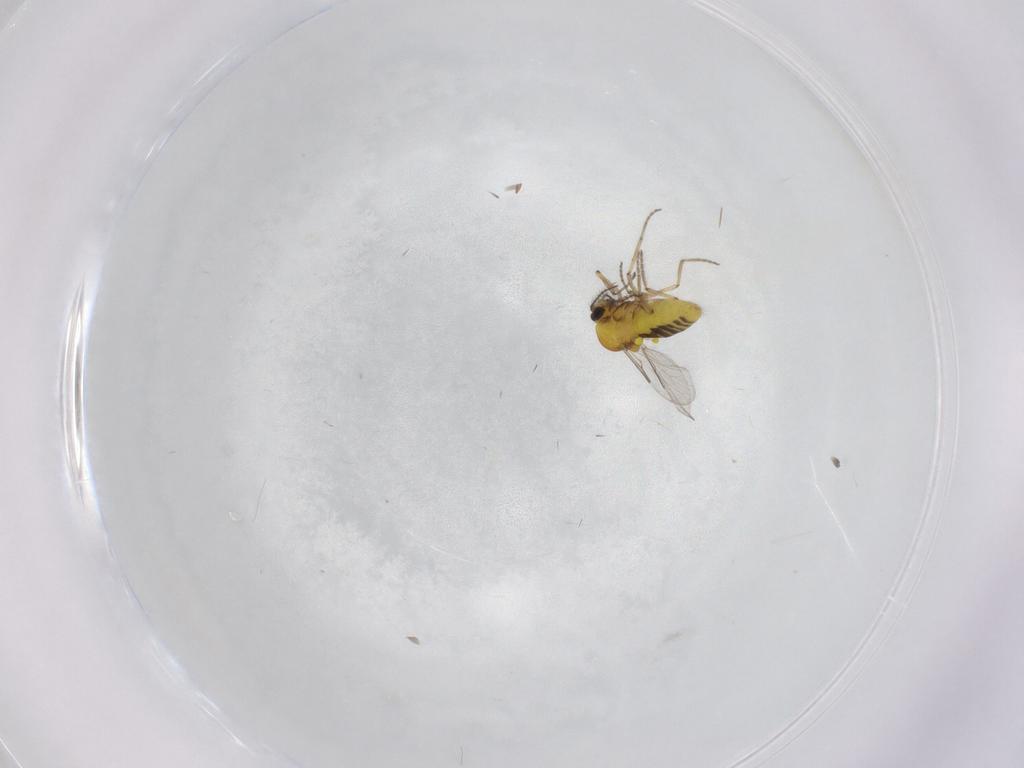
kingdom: Animalia
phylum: Arthropoda
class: Insecta
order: Diptera
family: Ceratopogonidae
